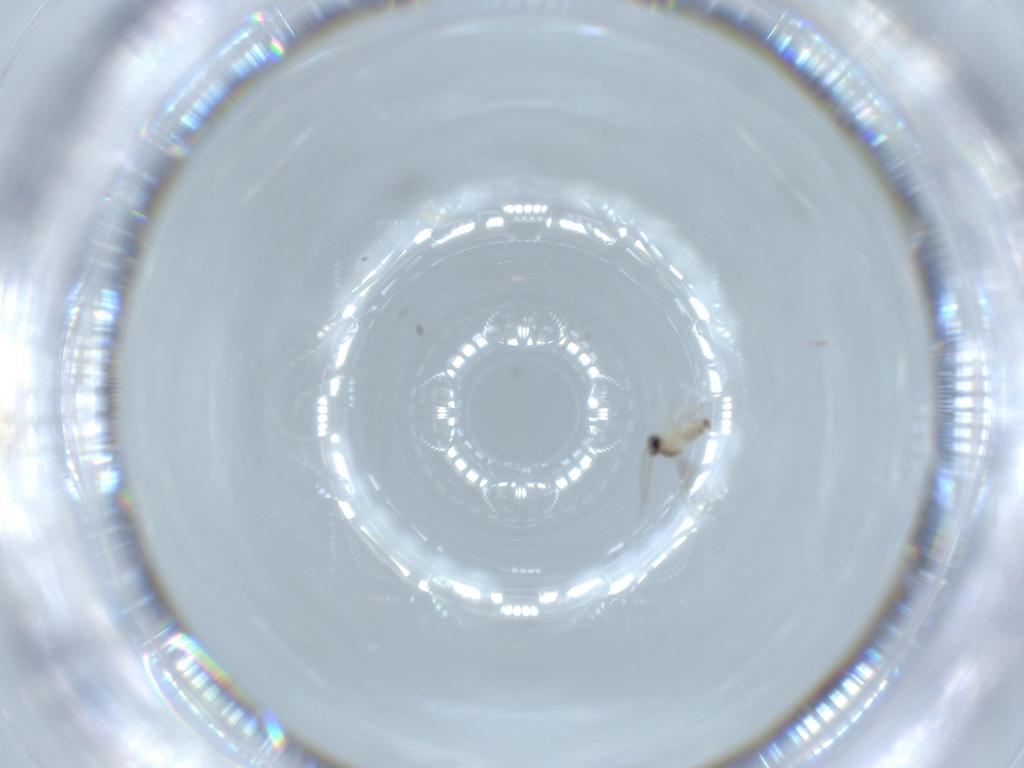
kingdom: Animalia
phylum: Arthropoda
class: Insecta
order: Diptera
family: Cecidomyiidae
